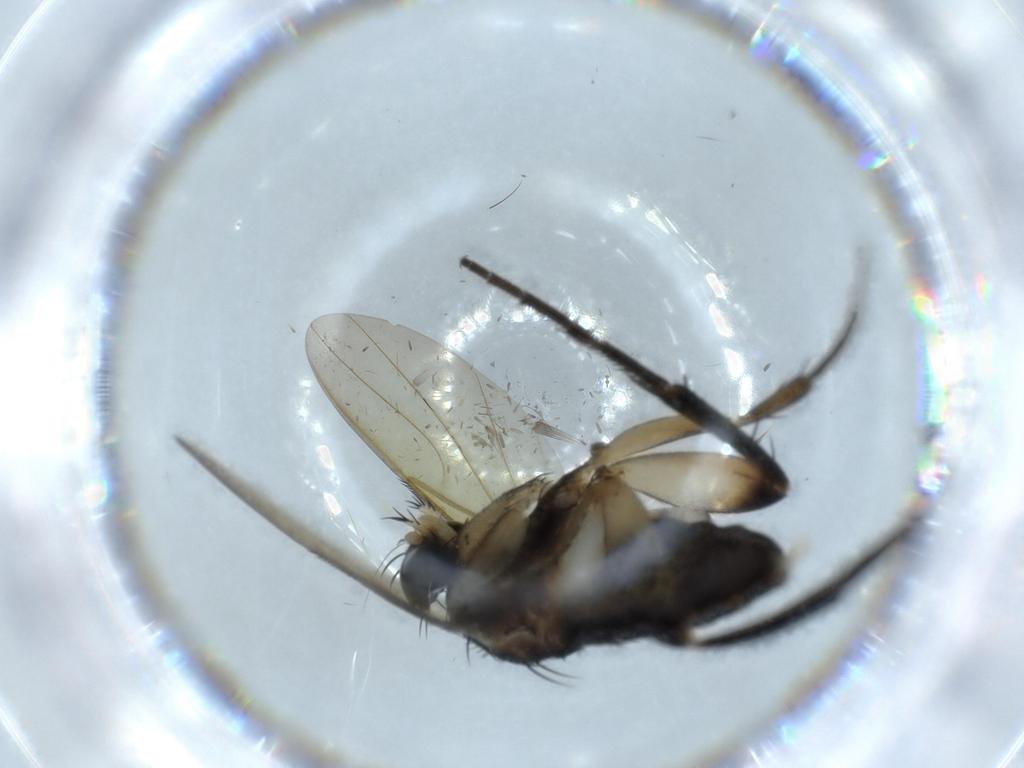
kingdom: Animalia
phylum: Arthropoda
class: Insecta
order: Diptera
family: Phoridae
